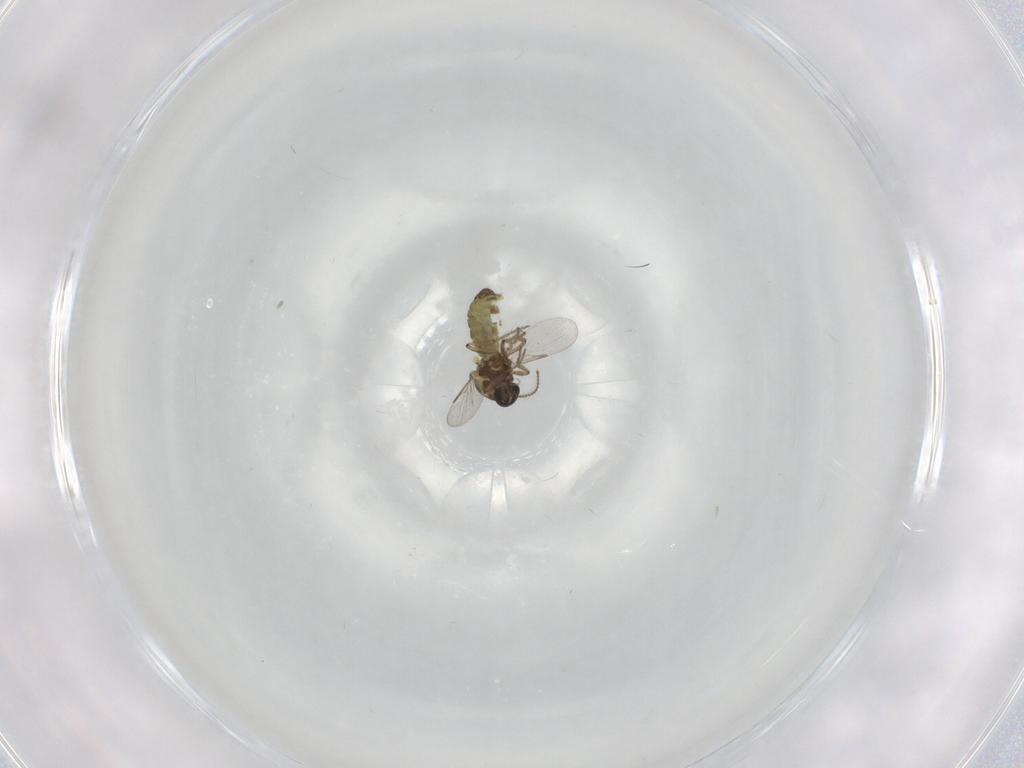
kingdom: Animalia
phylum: Arthropoda
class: Insecta
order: Diptera
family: Ceratopogonidae
